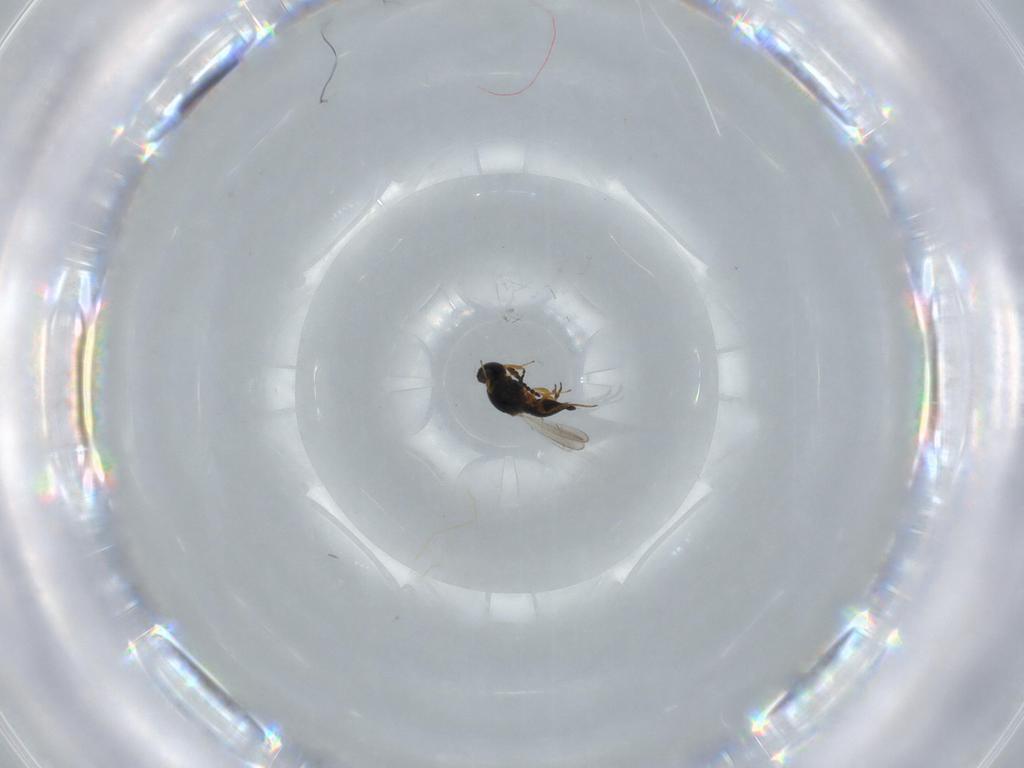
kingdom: Animalia
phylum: Arthropoda
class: Insecta
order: Hymenoptera
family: Platygastridae
